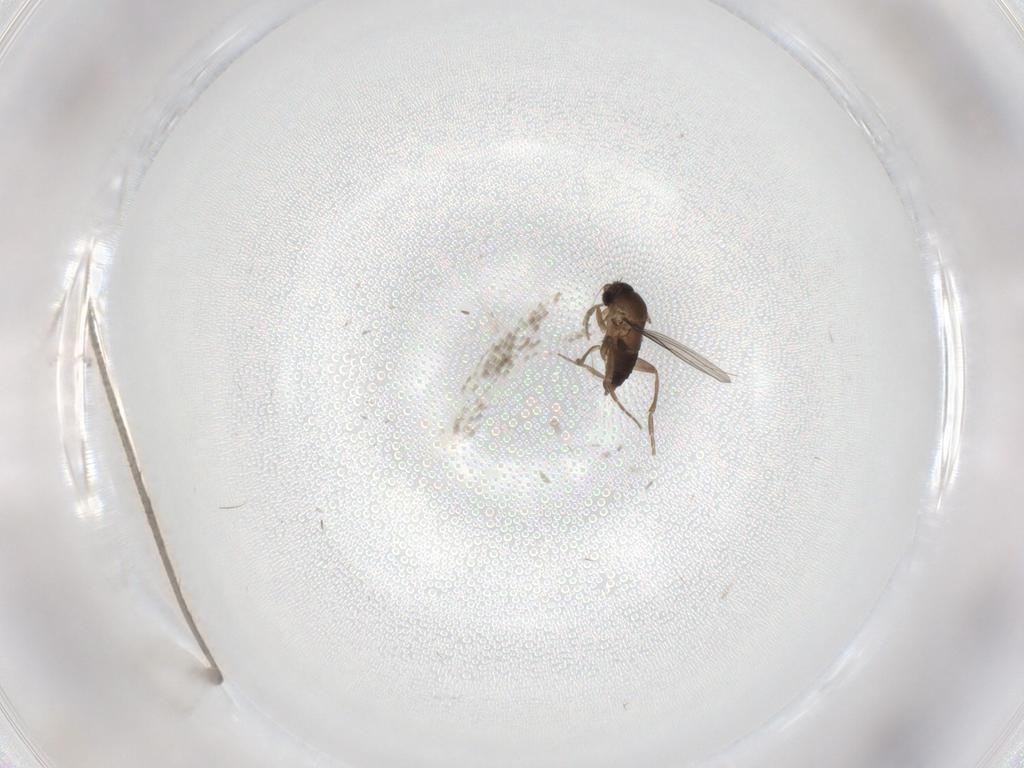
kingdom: Animalia
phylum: Arthropoda
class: Insecta
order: Diptera
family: Phoridae
